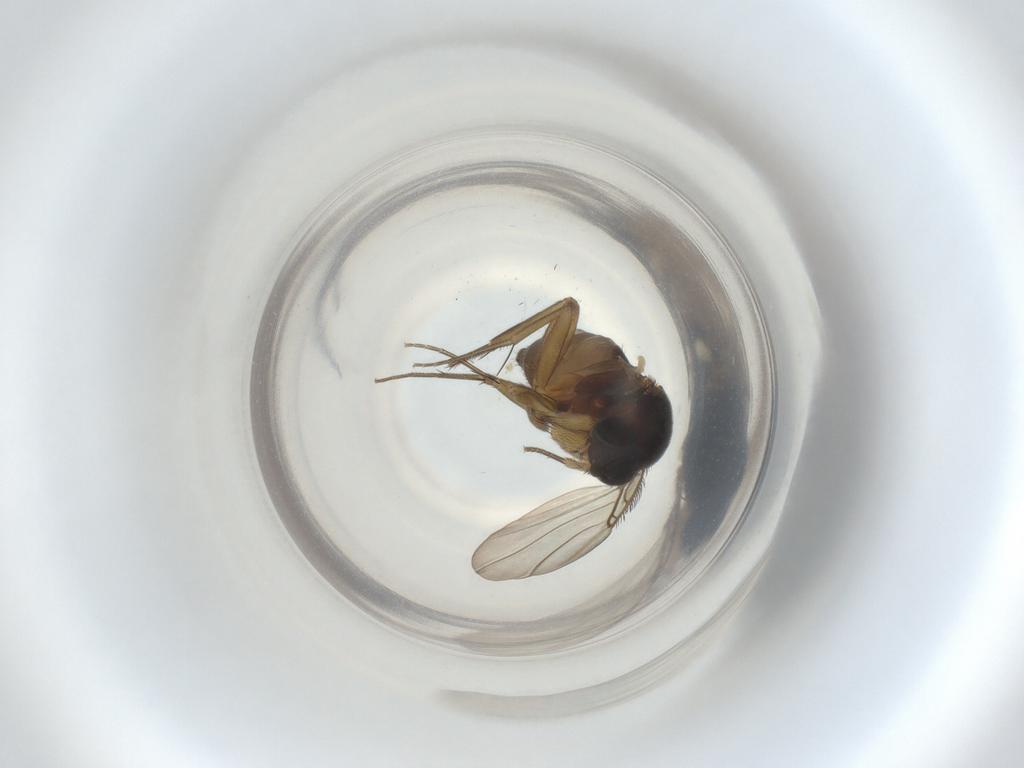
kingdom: Animalia
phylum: Arthropoda
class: Insecta
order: Diptera
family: Phoridae
